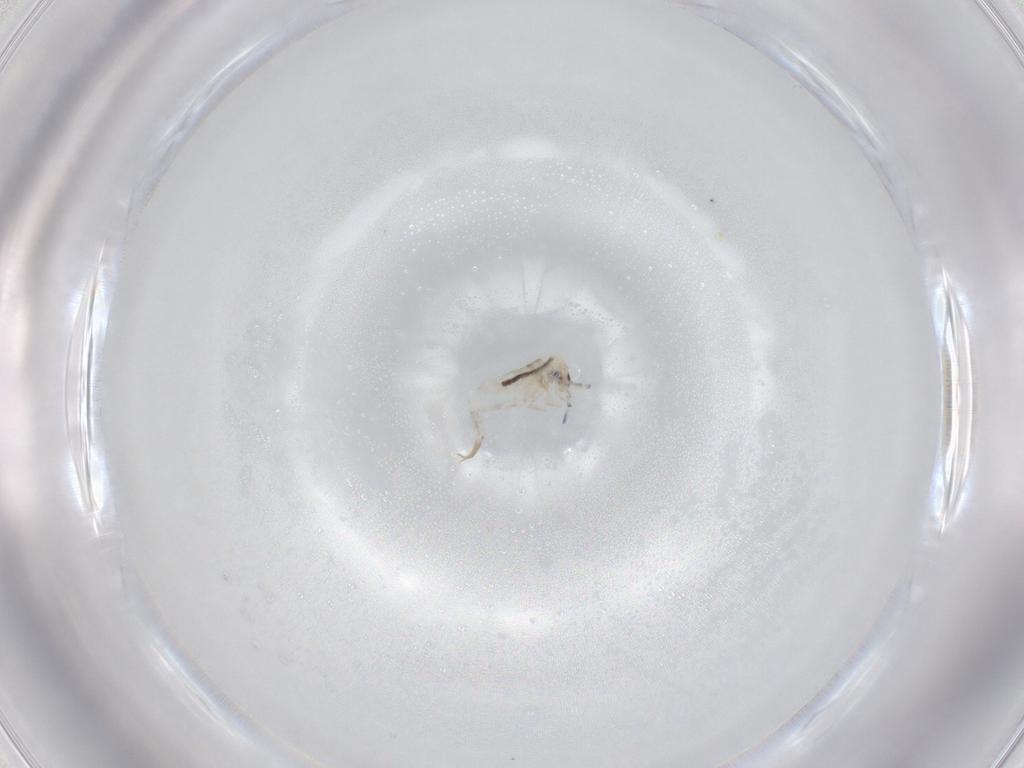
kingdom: Animalia
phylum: Arthropoda
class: Collembola
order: Entomobryomorpha
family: Entomobryidae
